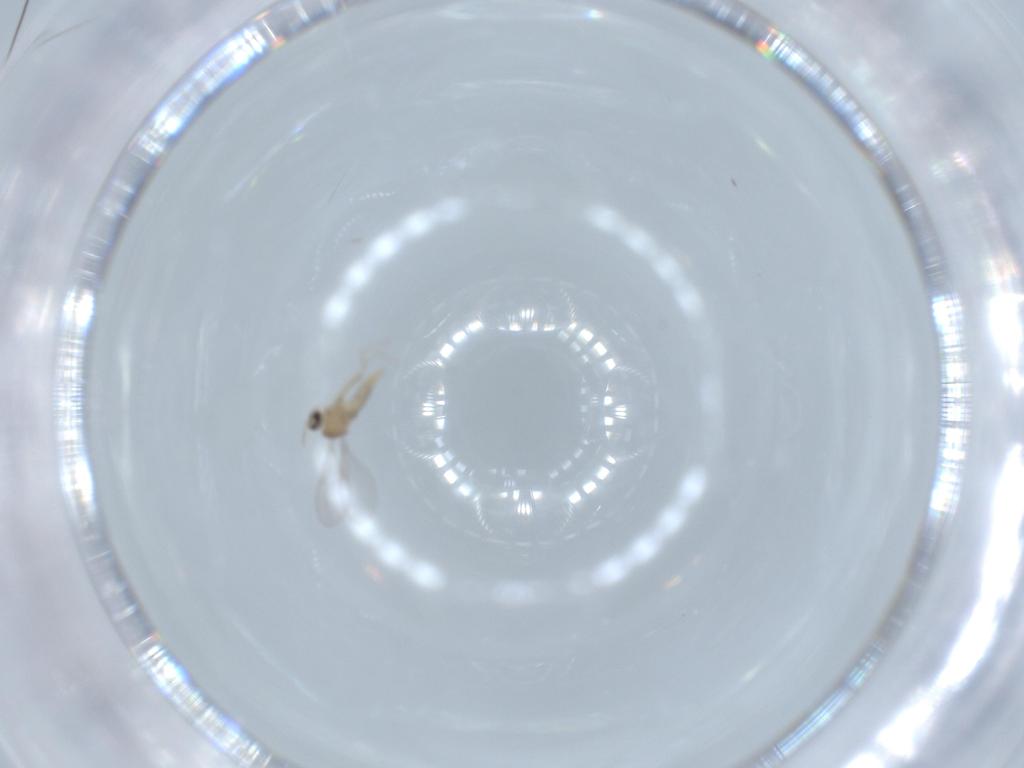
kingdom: Animalia
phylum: Arthropoda
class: Insecta
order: Diptera
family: Cecidomyiidae
